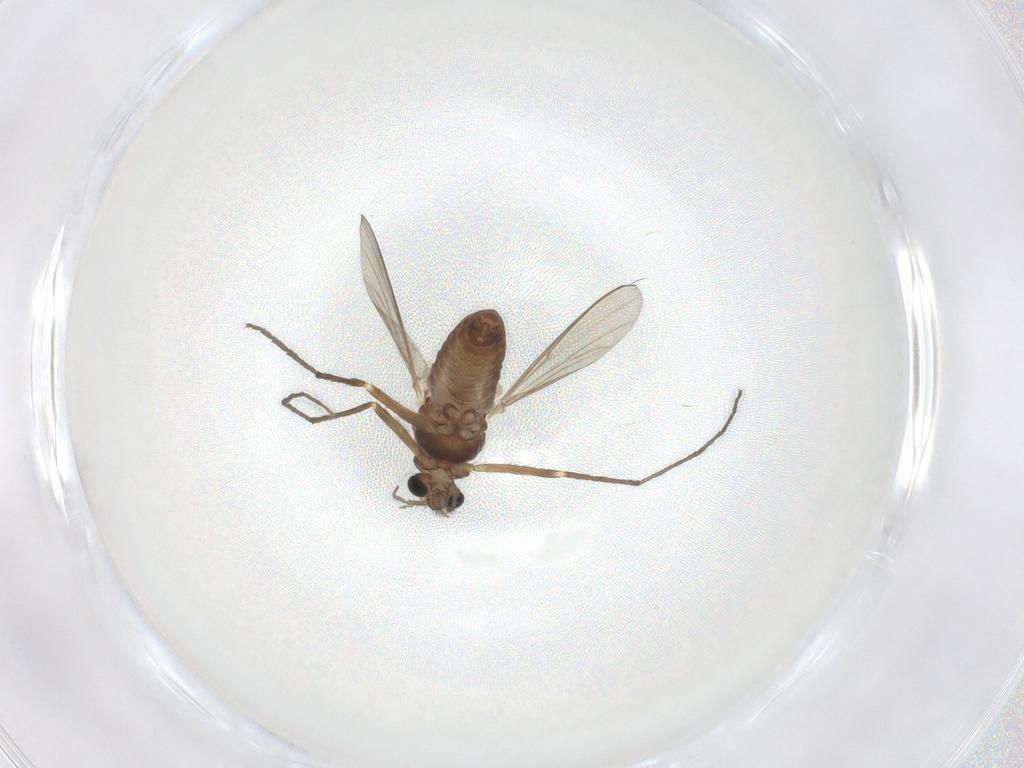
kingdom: Animalia
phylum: Arthropoda
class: Insecta
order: Diptera
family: Chironomidae
